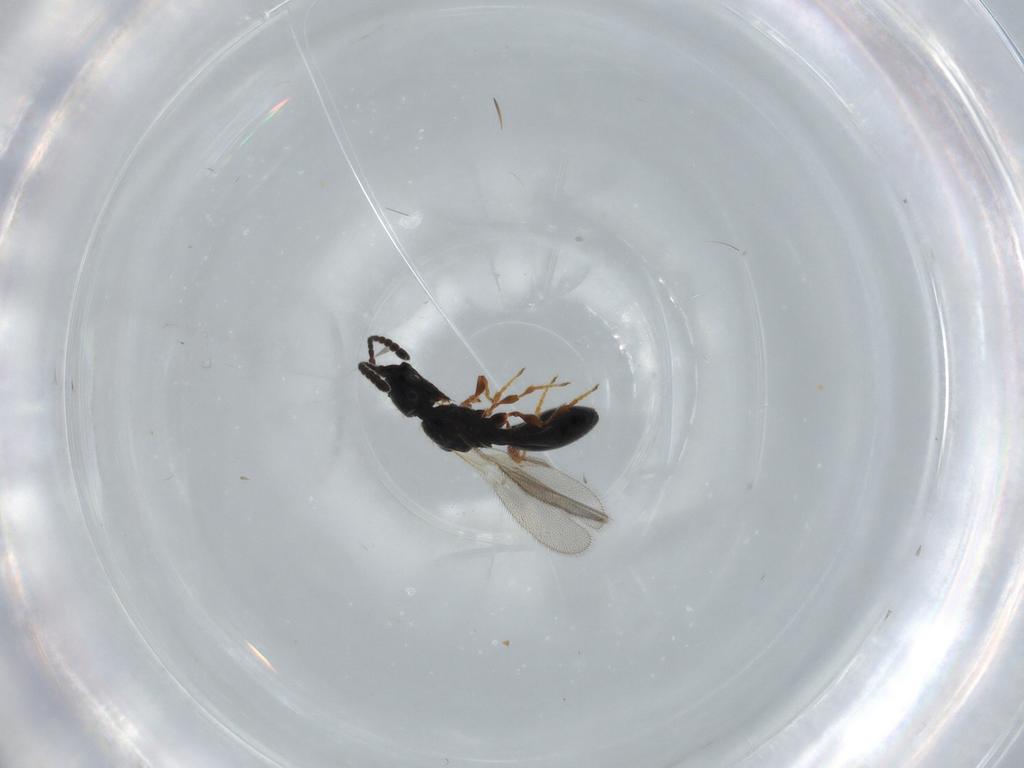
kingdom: Animalia
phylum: Arthropoda
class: Insecta
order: Hymenoptera
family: Diapriidae
